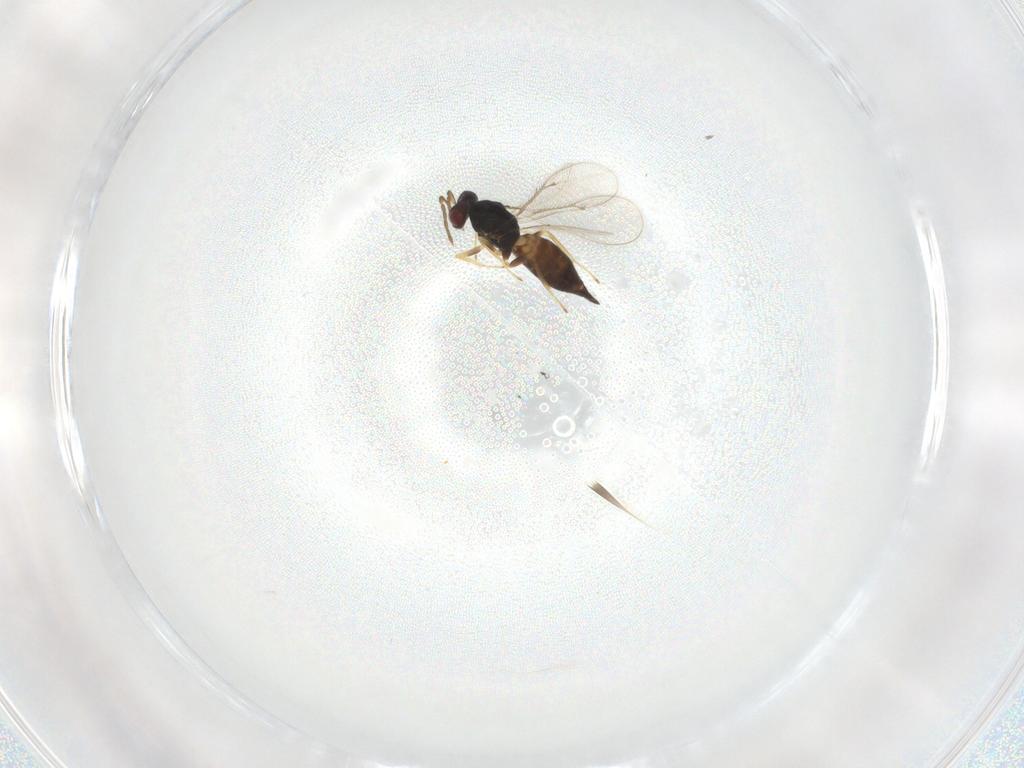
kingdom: Animalia
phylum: Arthropoda
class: Insecta
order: Hymenoptera
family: Eulophidae
